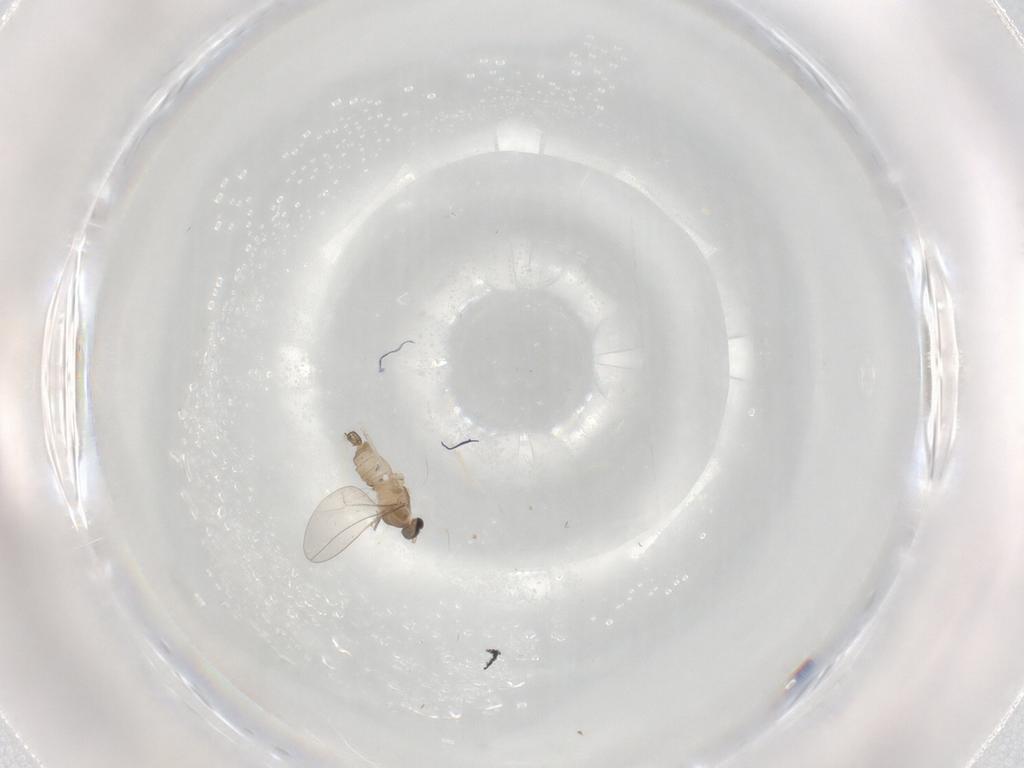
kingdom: Animalia
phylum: Arthropoda
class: Insecta
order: Diptera
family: Cecidomyiidae
